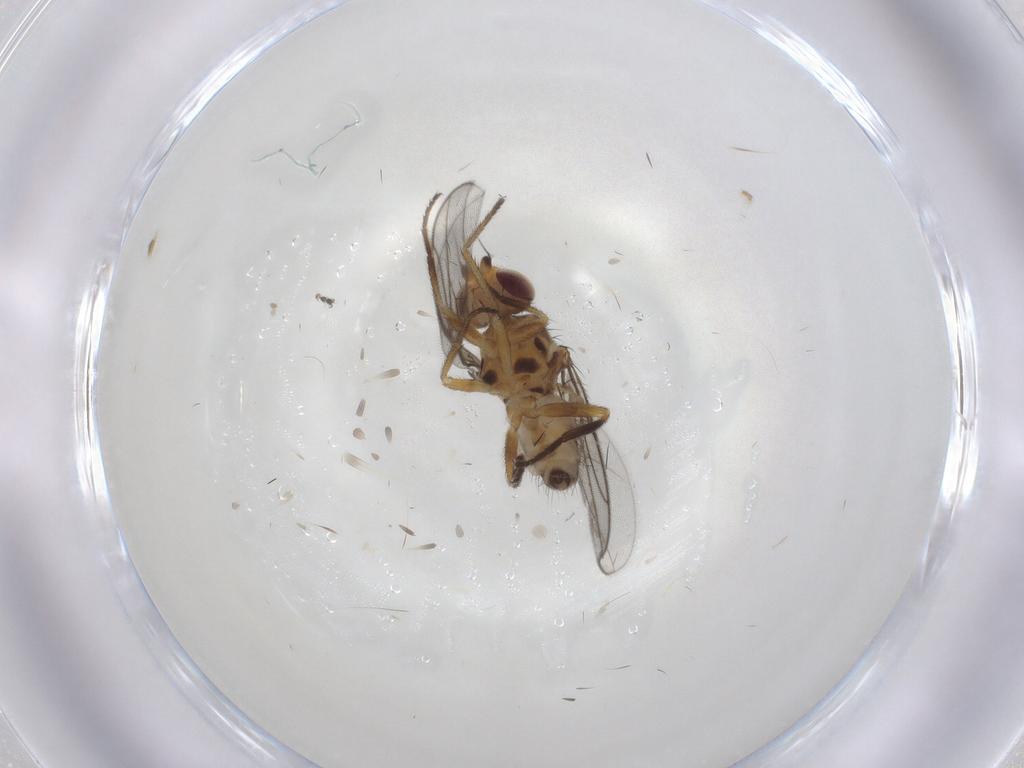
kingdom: Animalia
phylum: Arthropoda
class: Insecta
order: Diptera
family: Chloropidae
